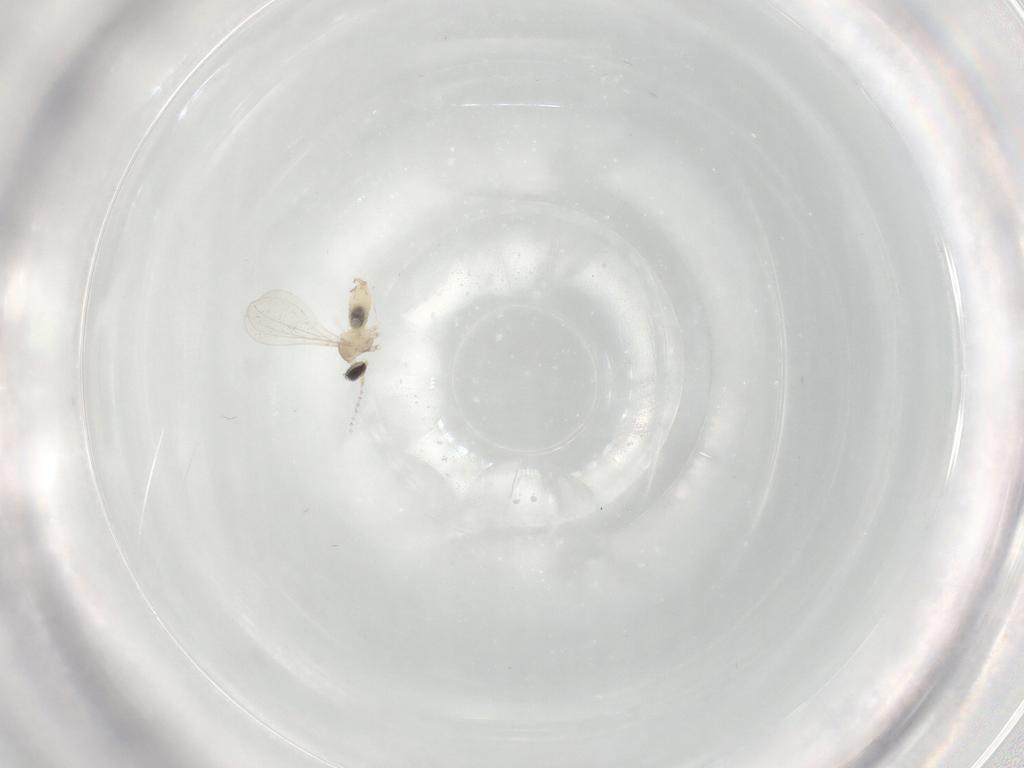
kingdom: Animalia
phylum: Arthropoda
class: Insecta
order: Diptera
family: Cecidomyiidae
